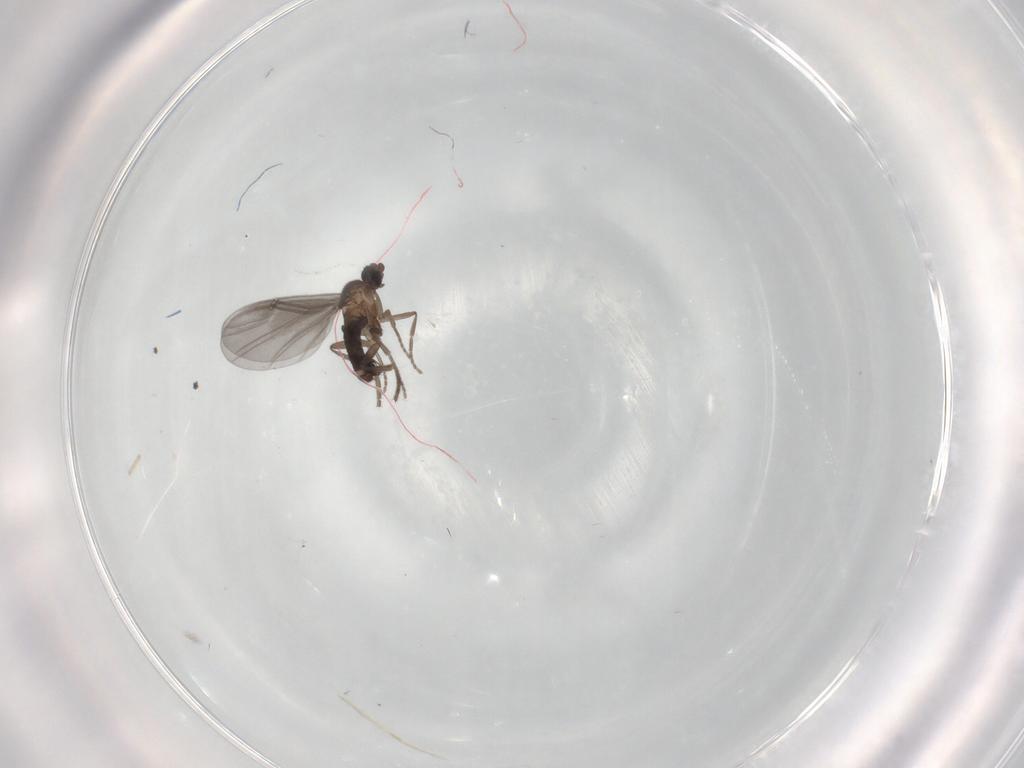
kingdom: Animalia
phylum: Arthropoda
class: Insecta
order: Diptera
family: Phoridae
